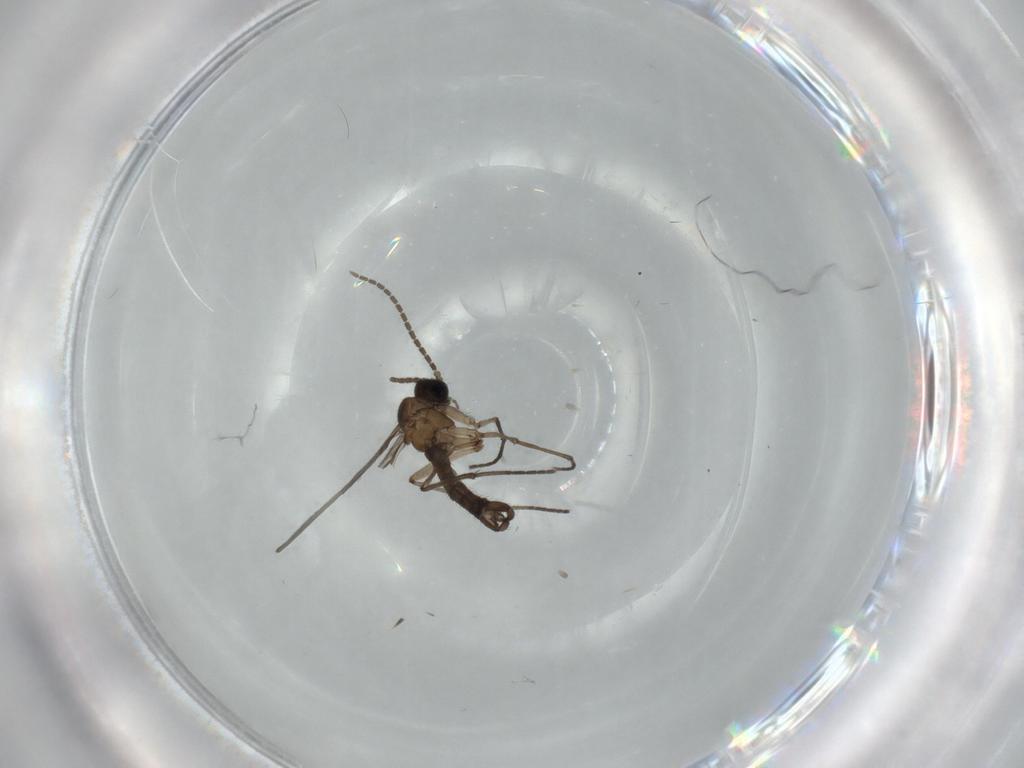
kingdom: Animalia
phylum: Arthropoda
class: Insecta
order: Diptera
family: Sciaridae
